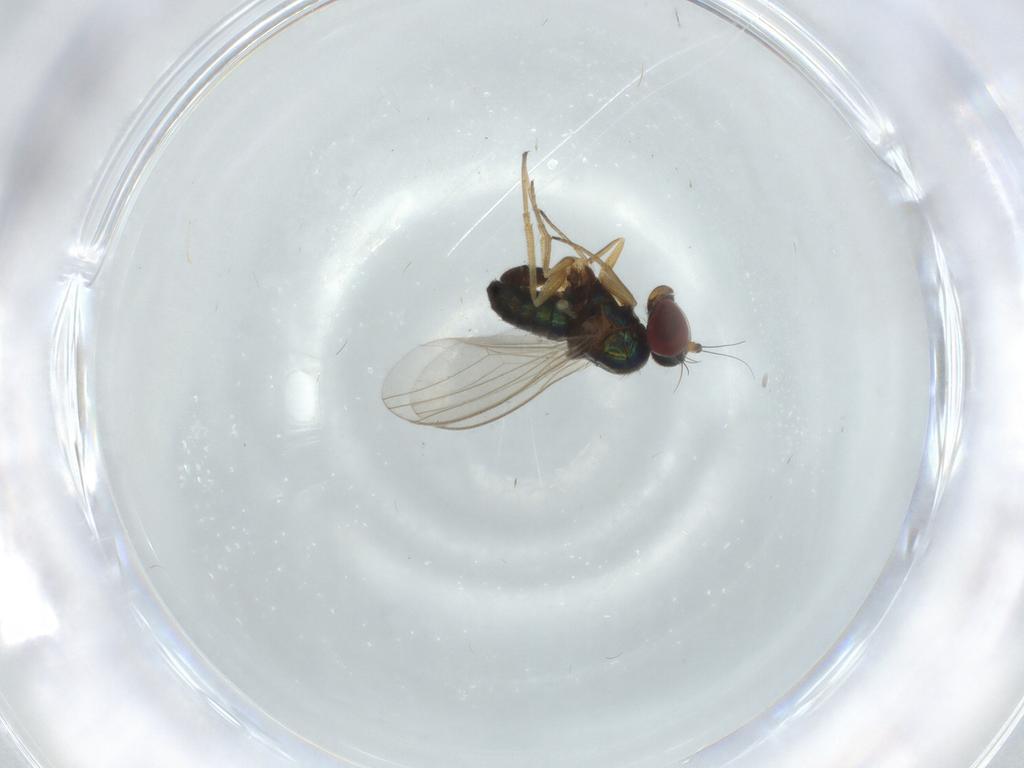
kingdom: Animalia
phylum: Arthropoda
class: Insecta
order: Diptera
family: Dolichopodidae
